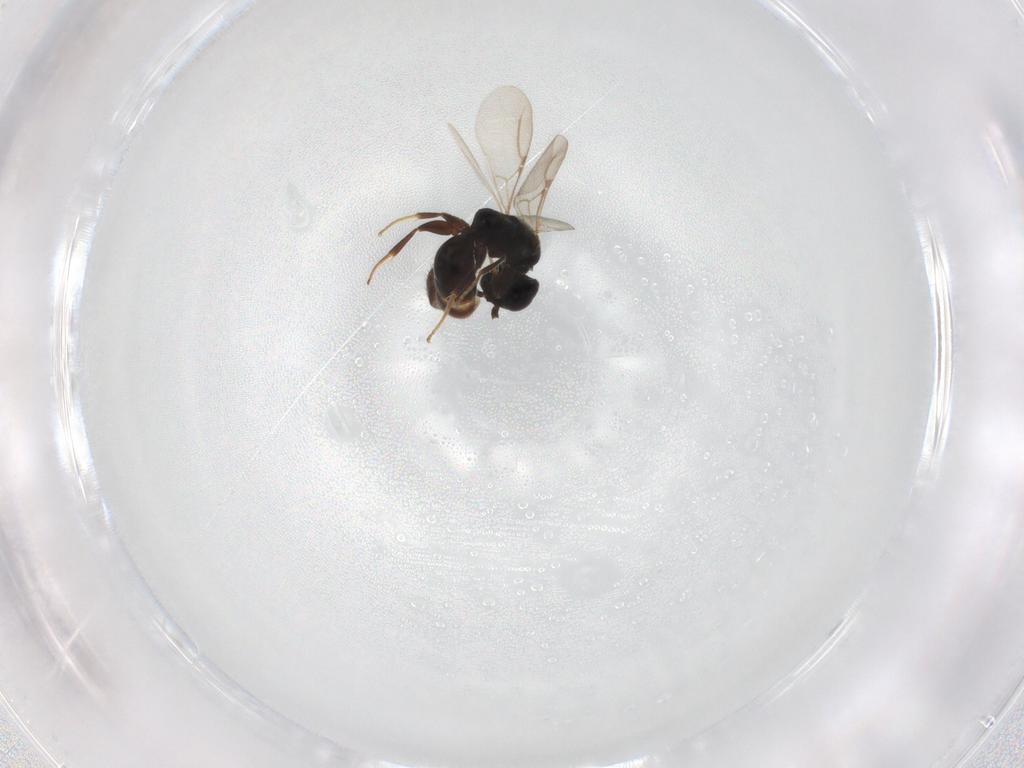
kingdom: Animalia
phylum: Arthropoda
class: Insecta
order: Hymenoptera
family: Bethylidae
